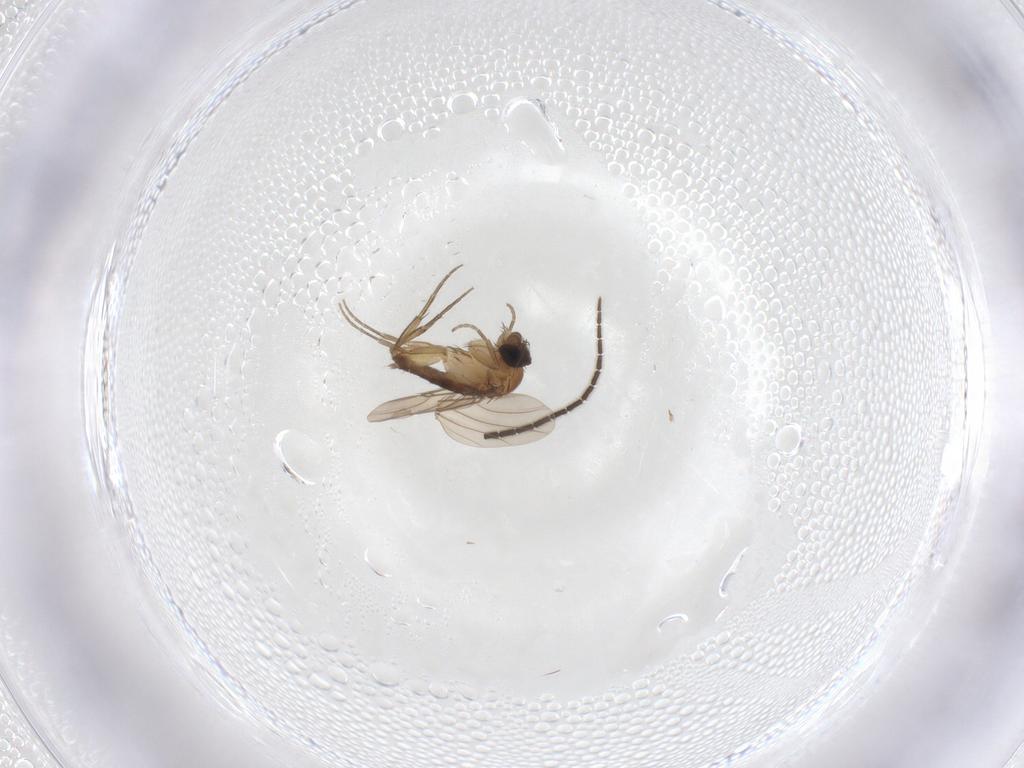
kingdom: Animalia
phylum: Arthropoda
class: Insecta
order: Diptera
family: Phoridae
